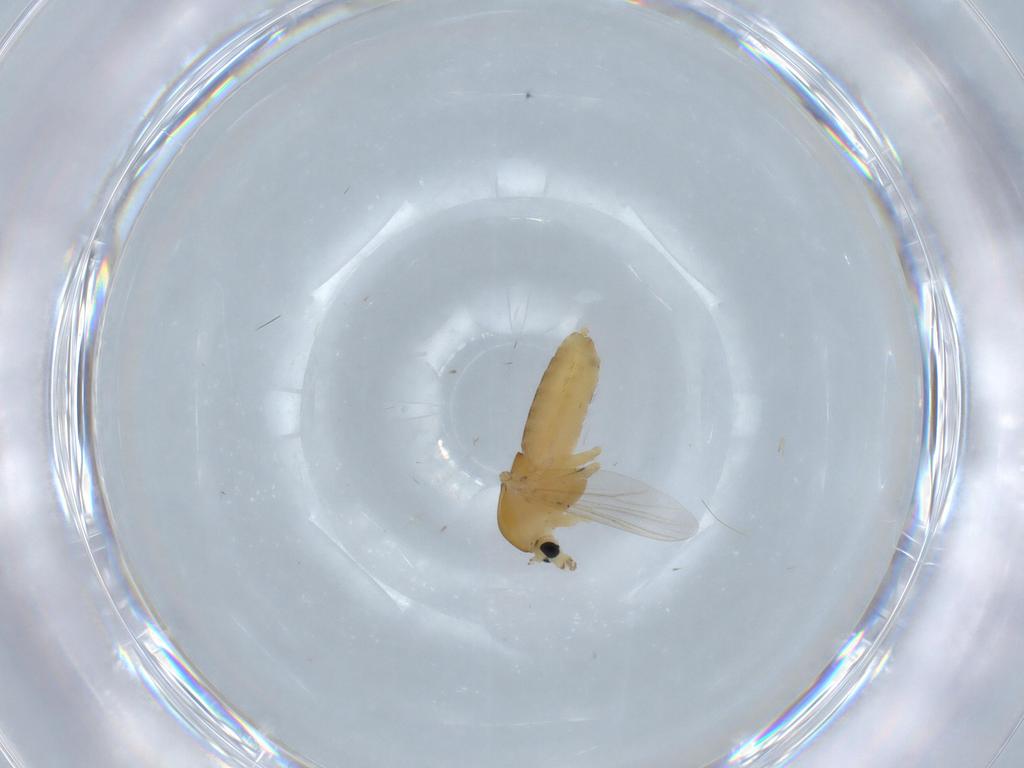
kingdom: Animalia
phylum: Arthropoda
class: Insecta
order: Diptera
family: Chironomidae
